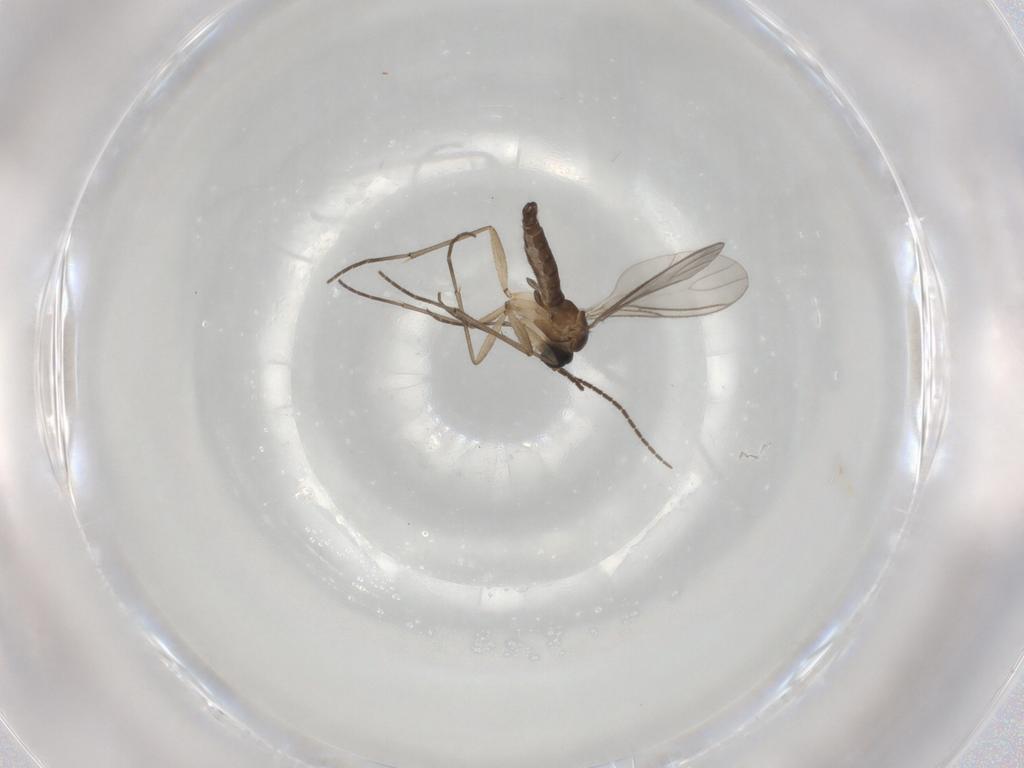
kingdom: Animalia
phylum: Arthropoda
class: Insecta
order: Diptera
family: Sciaridae
